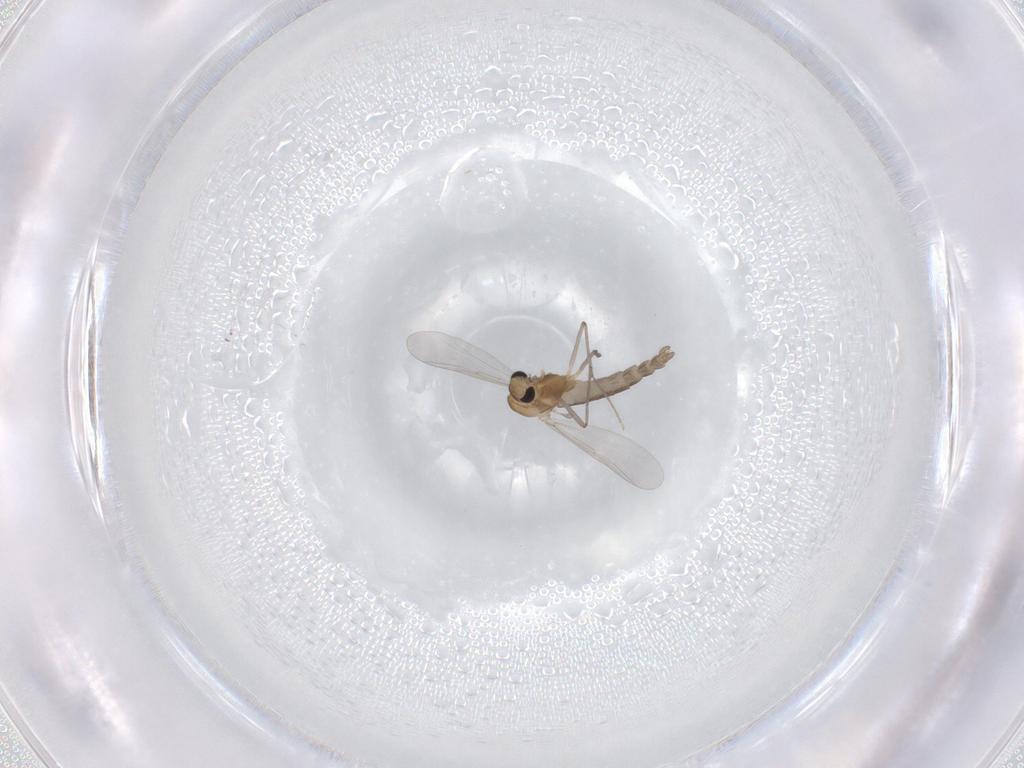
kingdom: Animalia
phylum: Arthropoda
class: Insecta
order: Diptera
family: Chironomidae
